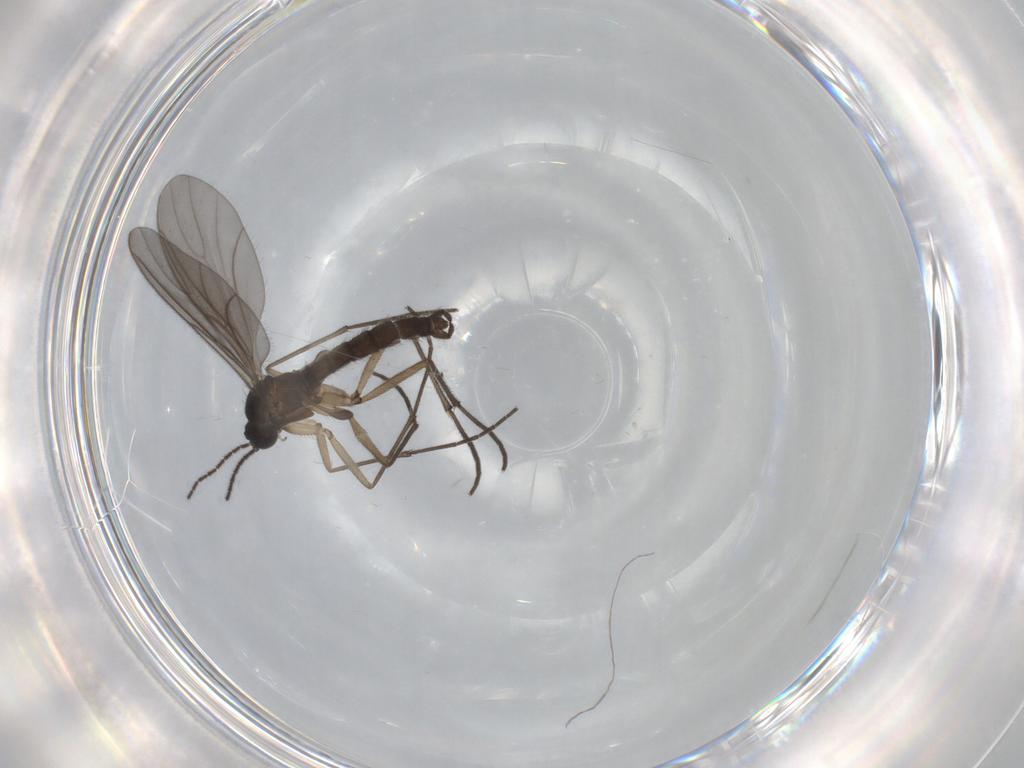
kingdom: Animalia
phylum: Arthropoda
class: Insecta
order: Diptera
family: Sciaridae
